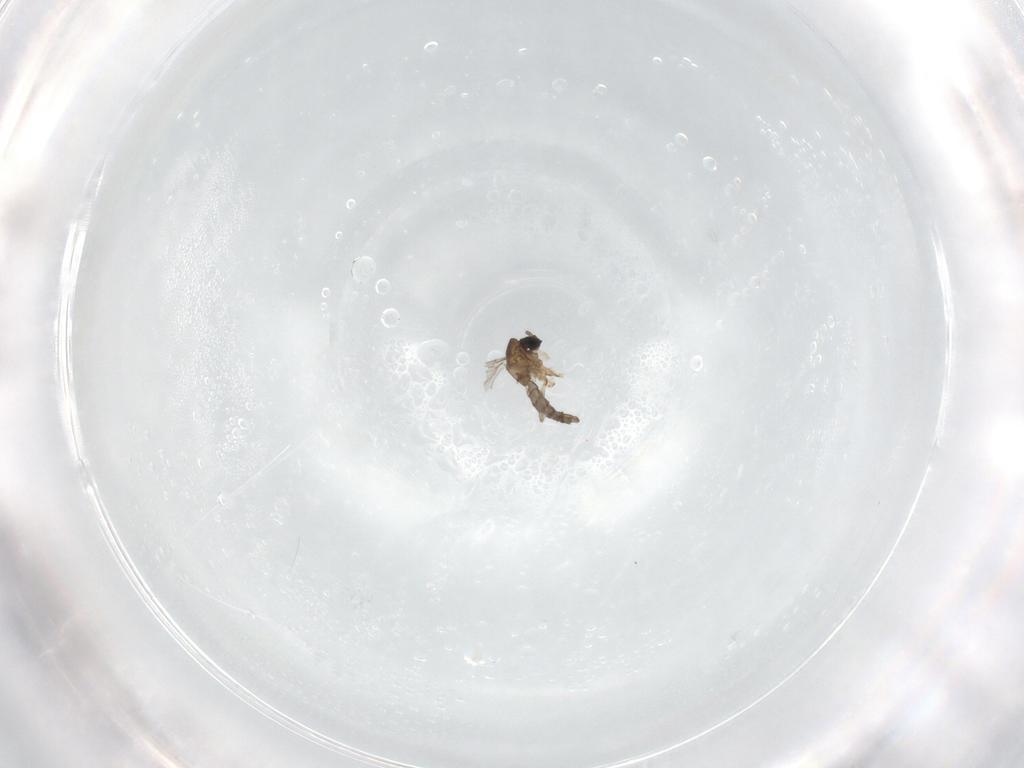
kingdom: Animalia
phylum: Arthropoda
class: Insecta
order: Diptera
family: Sciaridae
